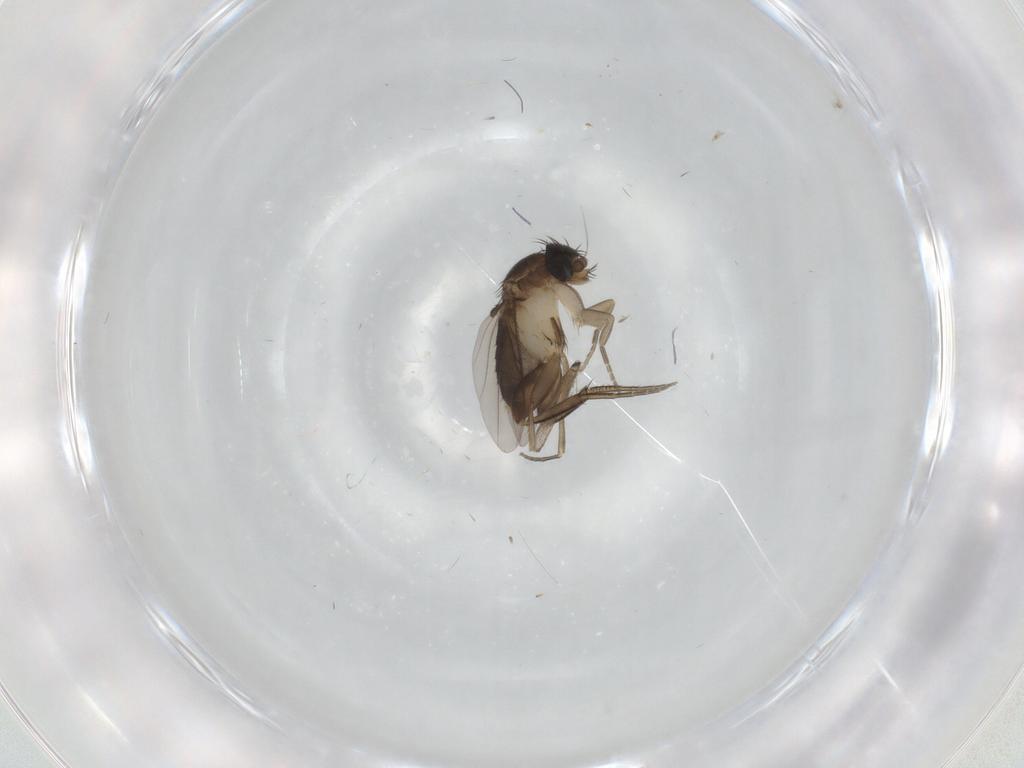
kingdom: Animalia
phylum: Arthropoda
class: Insecta
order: Diptera
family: Phoridae
